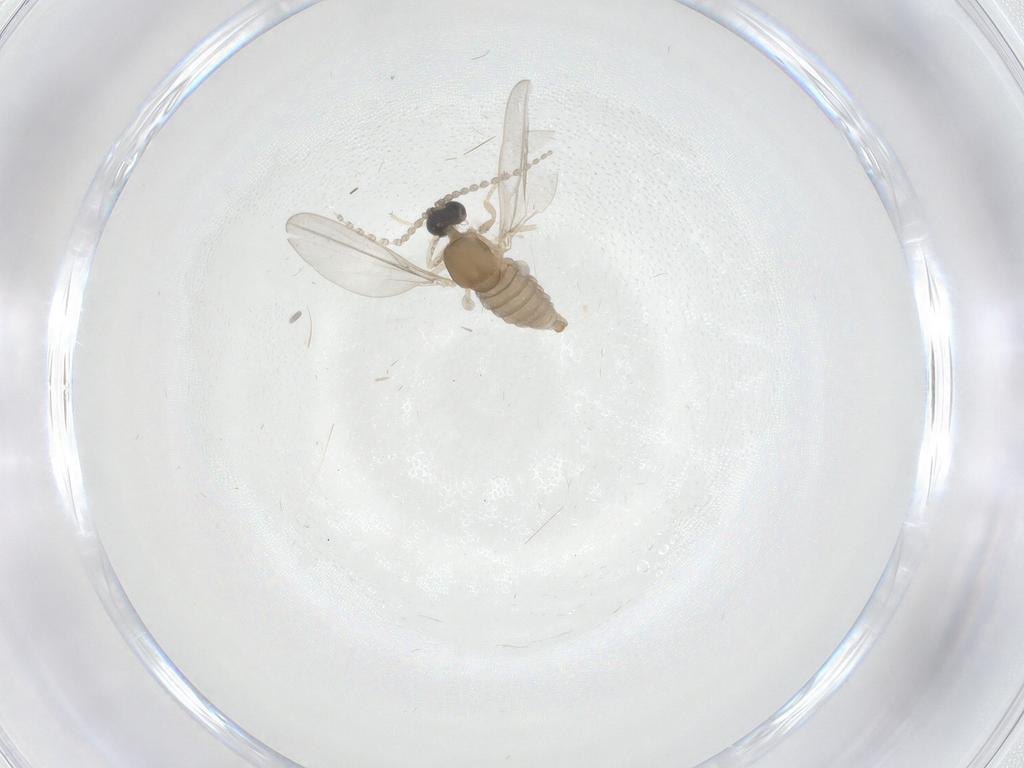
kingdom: Animalia
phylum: Arthropoda
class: Insecta
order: Diptera
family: Cecidomyiidae
